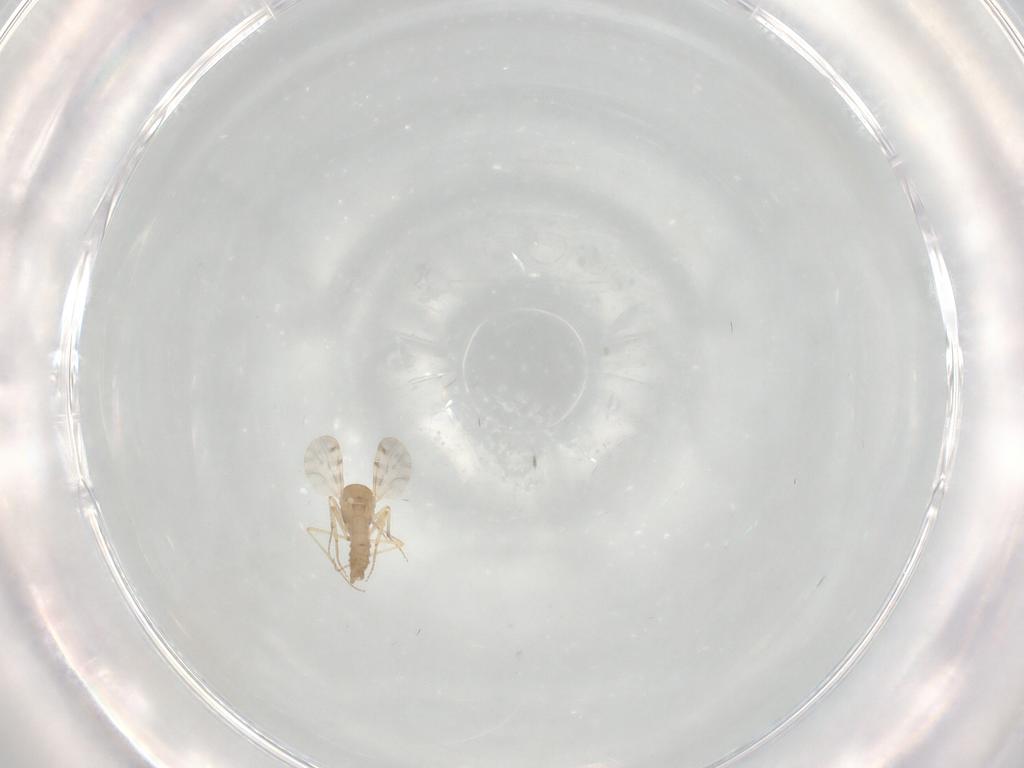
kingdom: Animalia
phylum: Arthropoda
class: Insecta
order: Diptera
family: Ceratopogonidae
